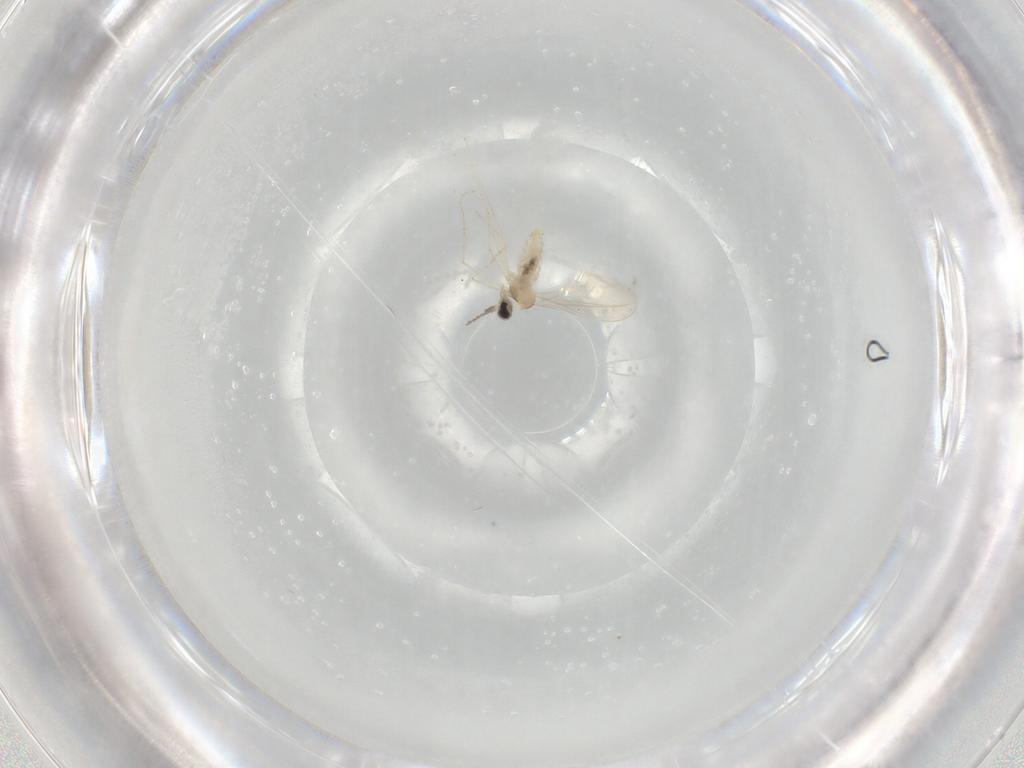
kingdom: Animalia
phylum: Arthropoda
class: Insecta
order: Diptera
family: Cecidomyiidae
